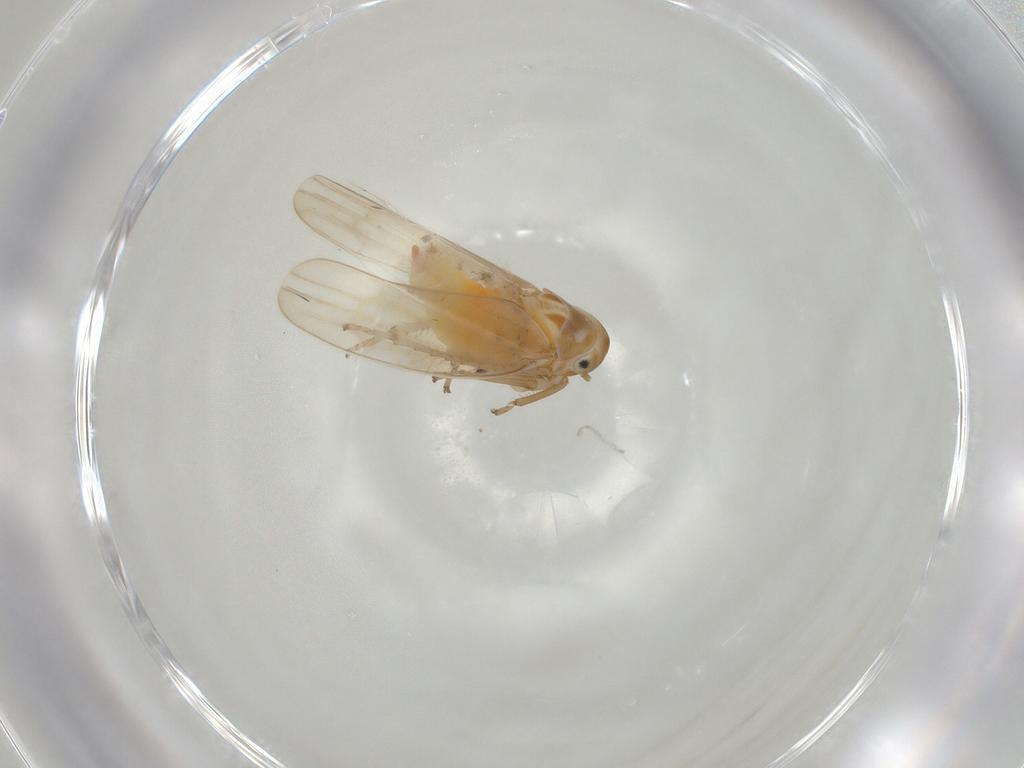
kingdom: Animalia
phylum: Arthropoda
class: Insecta
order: Hemiptera
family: Cicadellidae
